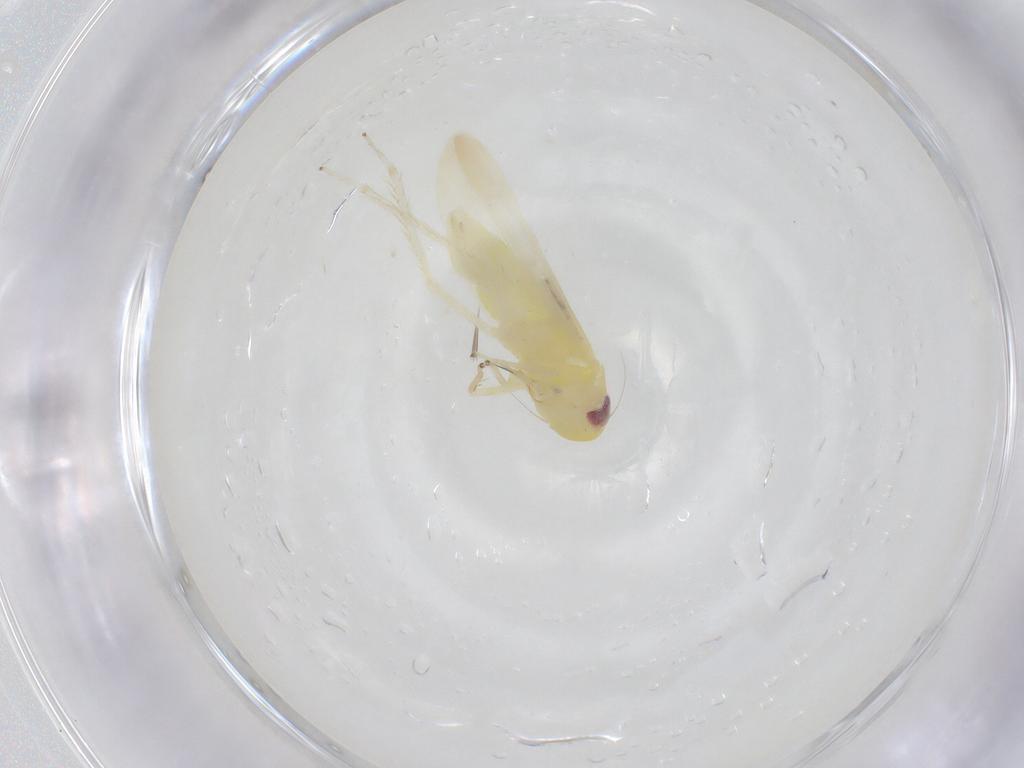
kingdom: Animalia
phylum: Arthropoda
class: Insecta
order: Hemiptera
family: Cicadellidae
